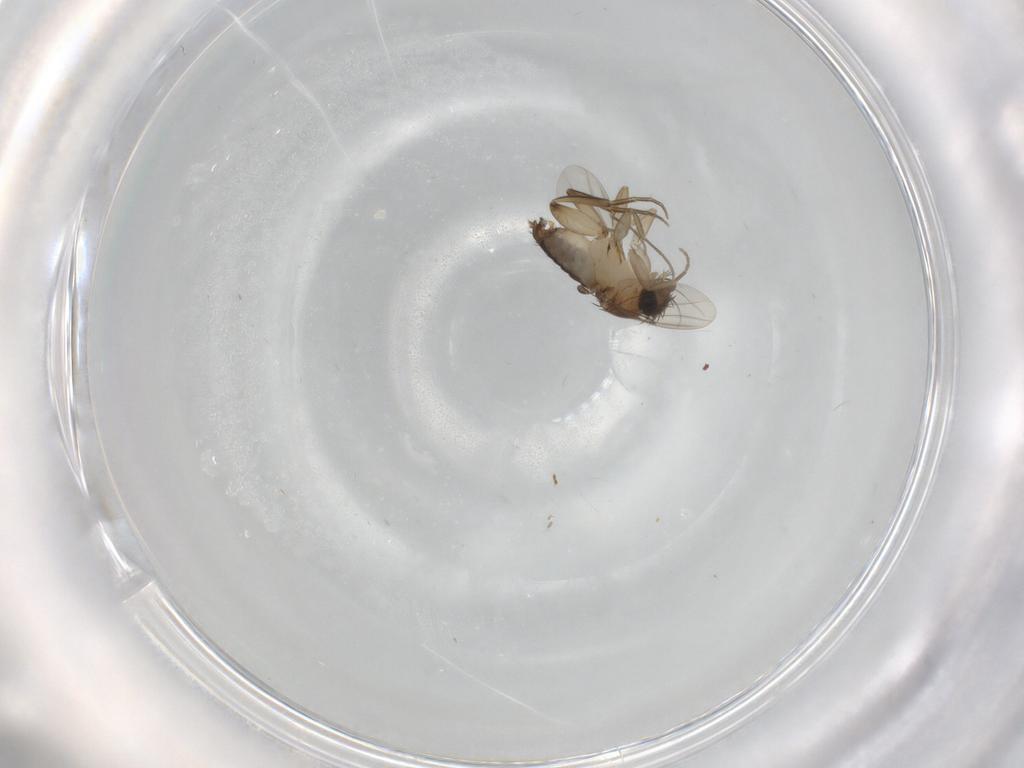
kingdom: Animalia
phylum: Arthropoda
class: Insecta
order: Diptera
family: Phoridae
